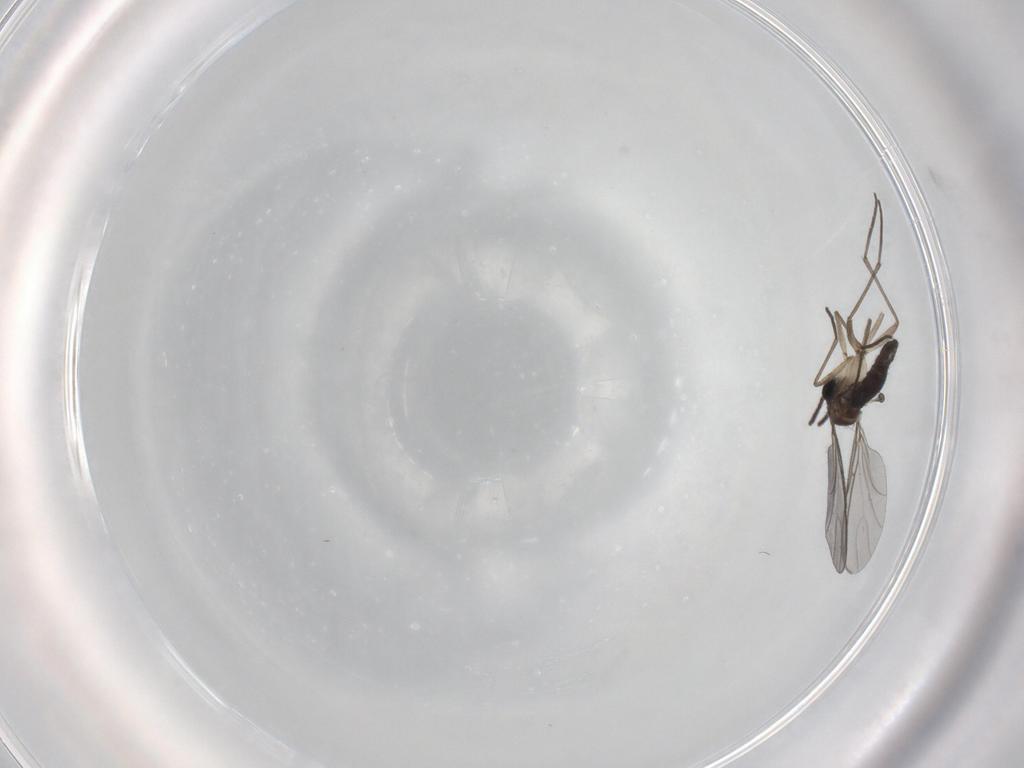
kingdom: Animalia
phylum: Arthropoda
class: Insecta
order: Diptera
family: Sciaridae
